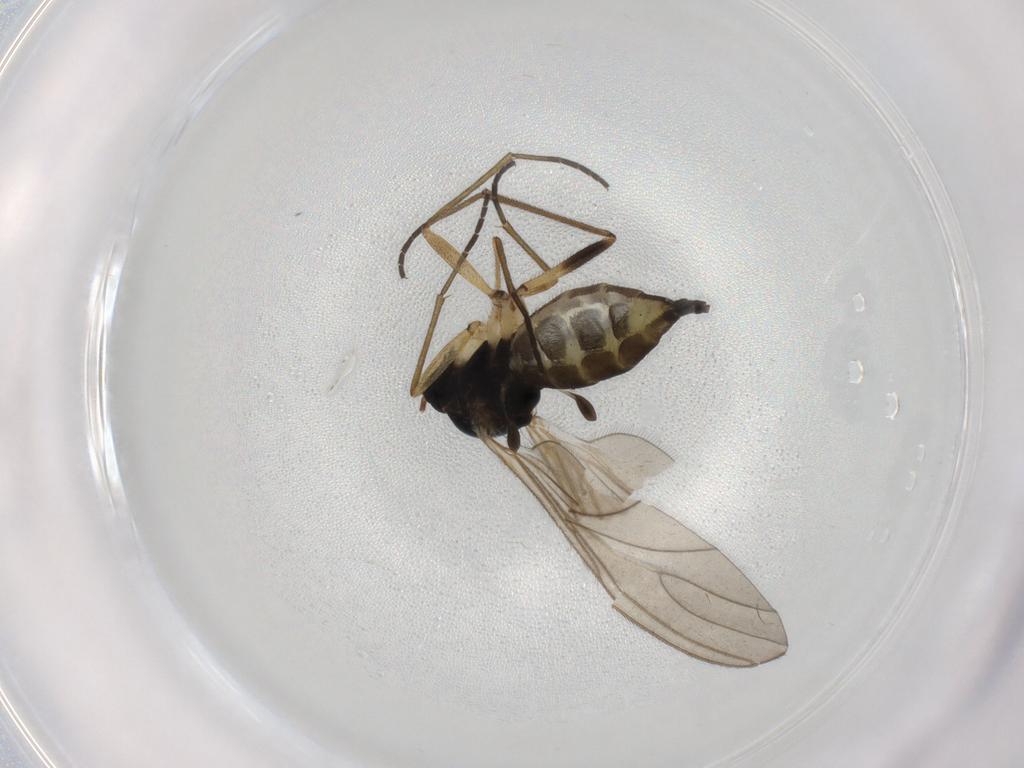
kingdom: Animalia
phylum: Arthropoda
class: Insecta
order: Diptera
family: Sciaridae
